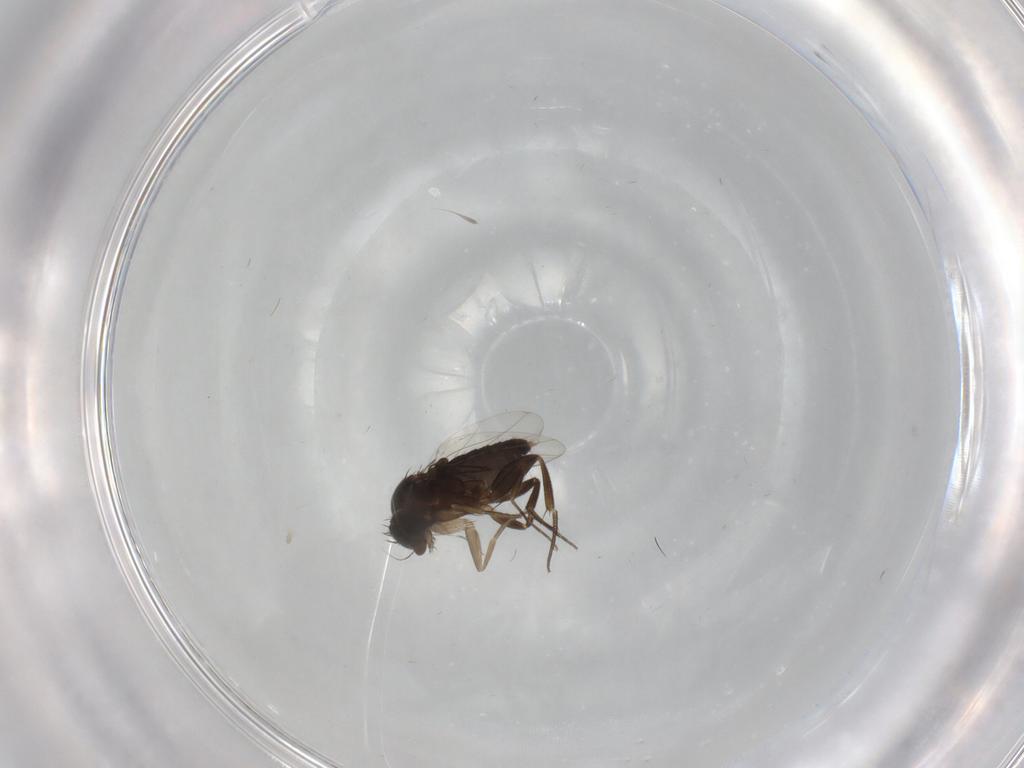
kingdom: Animalia
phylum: Arthropoda
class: Insecta
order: Diptera
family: Phoridae
